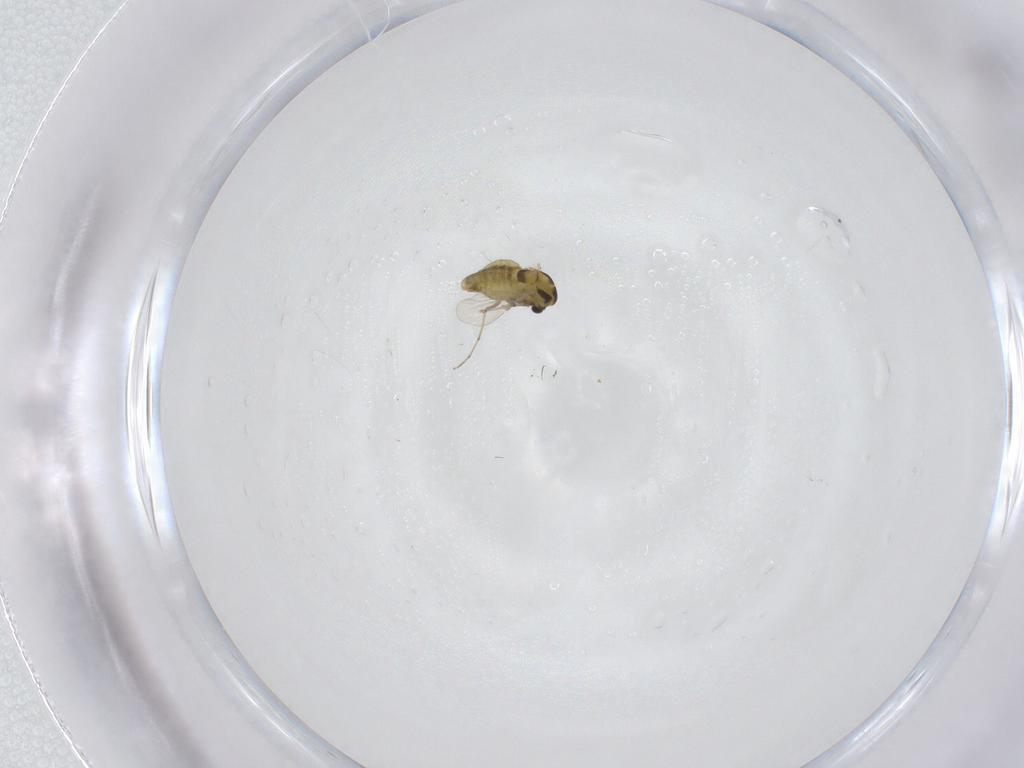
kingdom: Animalia
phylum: Arthropoda
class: Insecta
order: Diptera
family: Chironomidae
